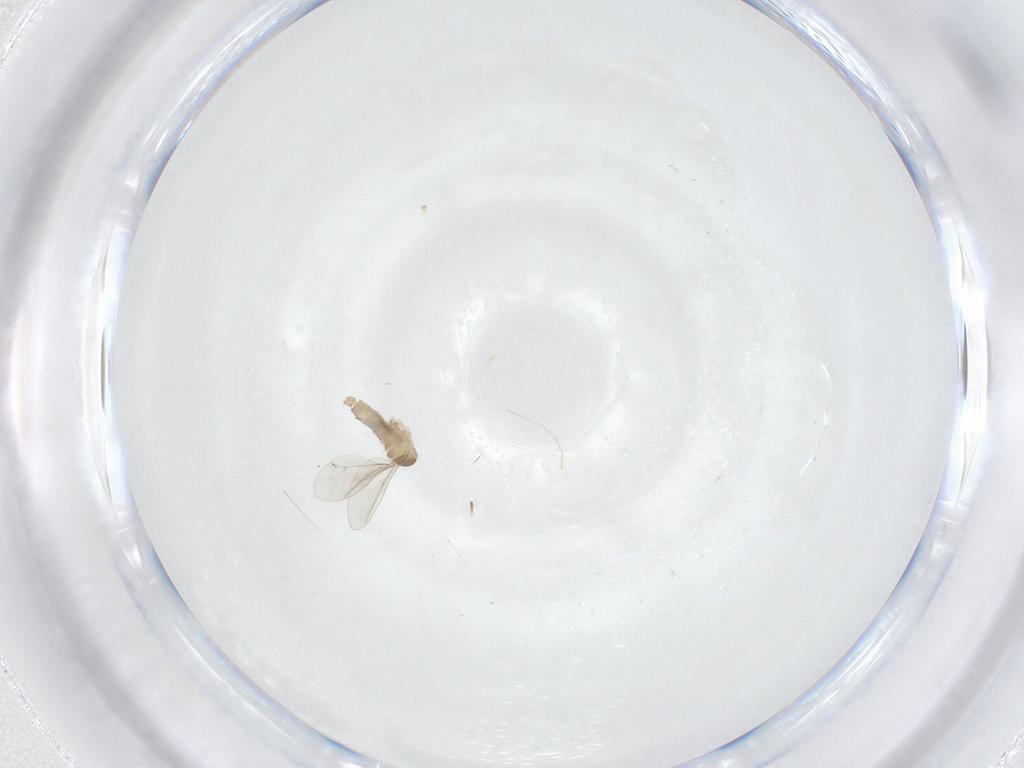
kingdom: Animalia
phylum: Arthropoda
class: Insecta
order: Diptera
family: Cecidomyiidae
